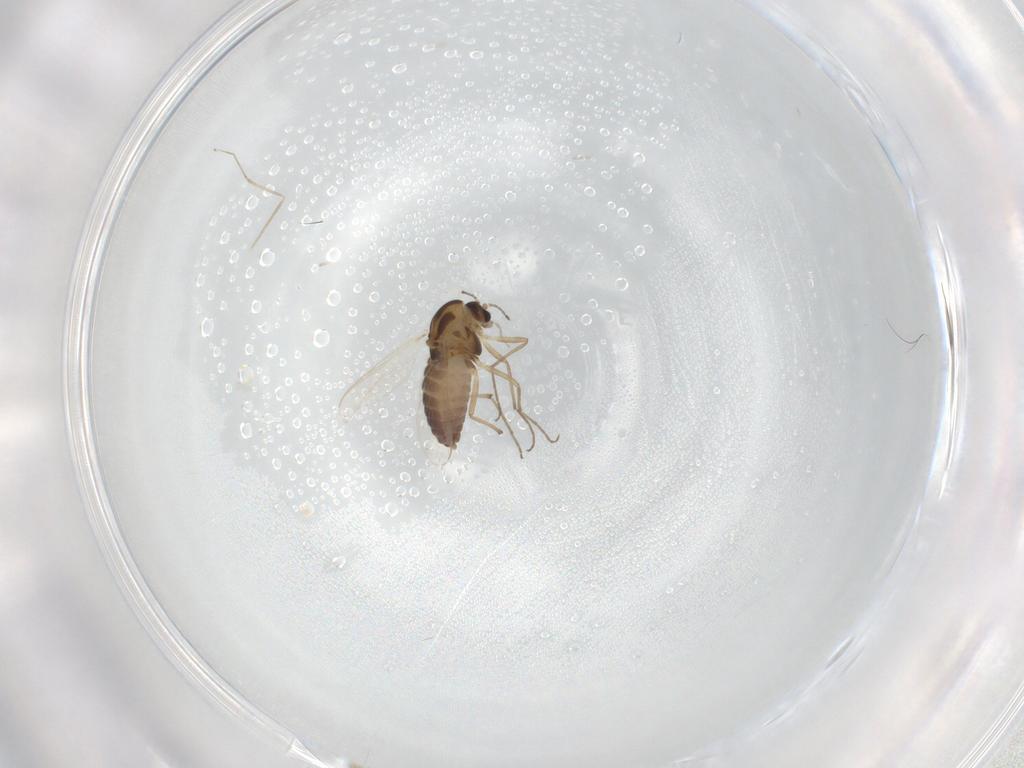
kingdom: Animalia
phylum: Arthropoda
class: Insecta
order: Diptera
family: Chironomidae
